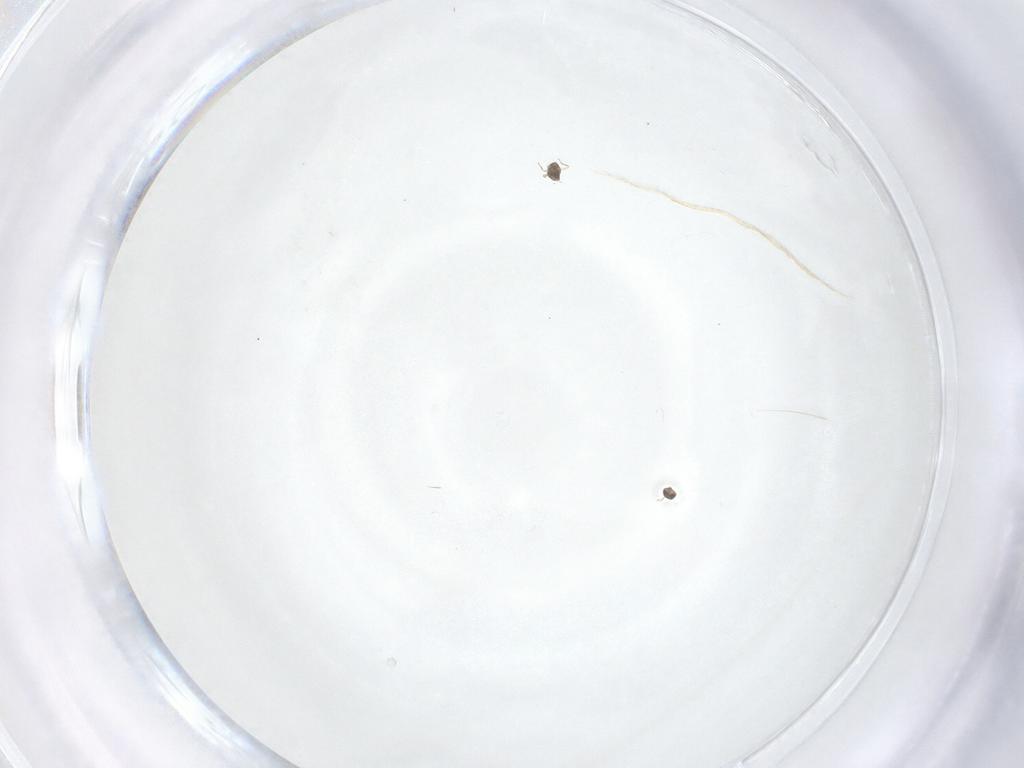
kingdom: Animalia
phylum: Arthropoda
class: Insecta
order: Hymenoptera
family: Mymaridae
